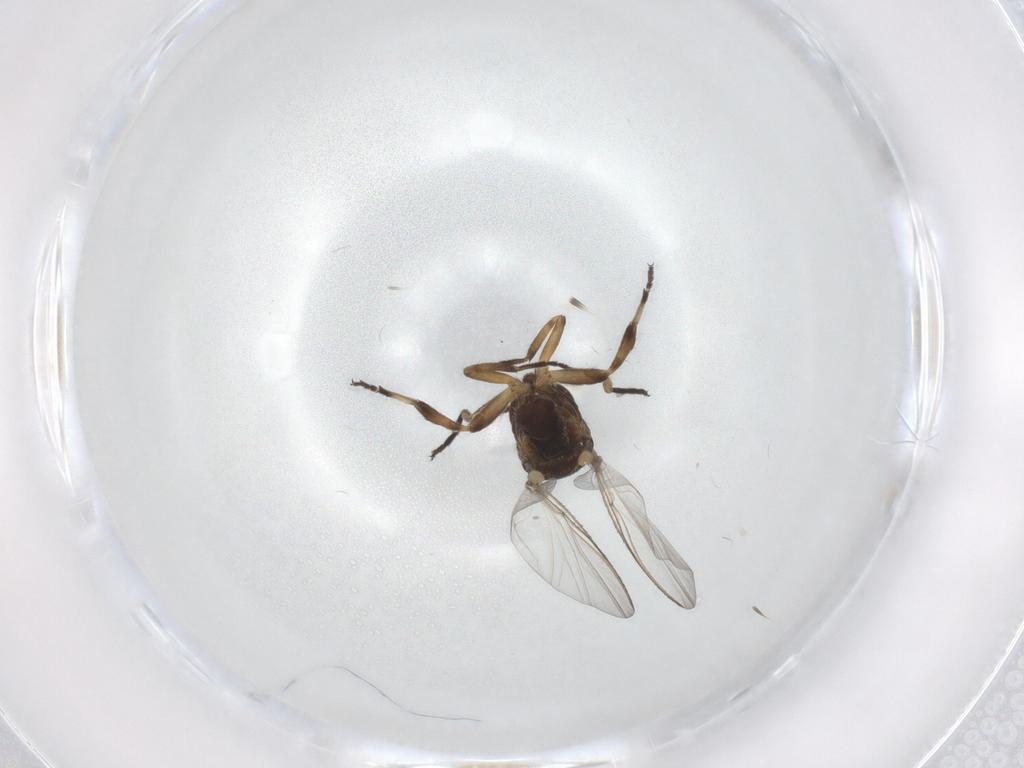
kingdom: Animalia
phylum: Arthropoda
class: Insecta
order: Diptera
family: Simuliidae
